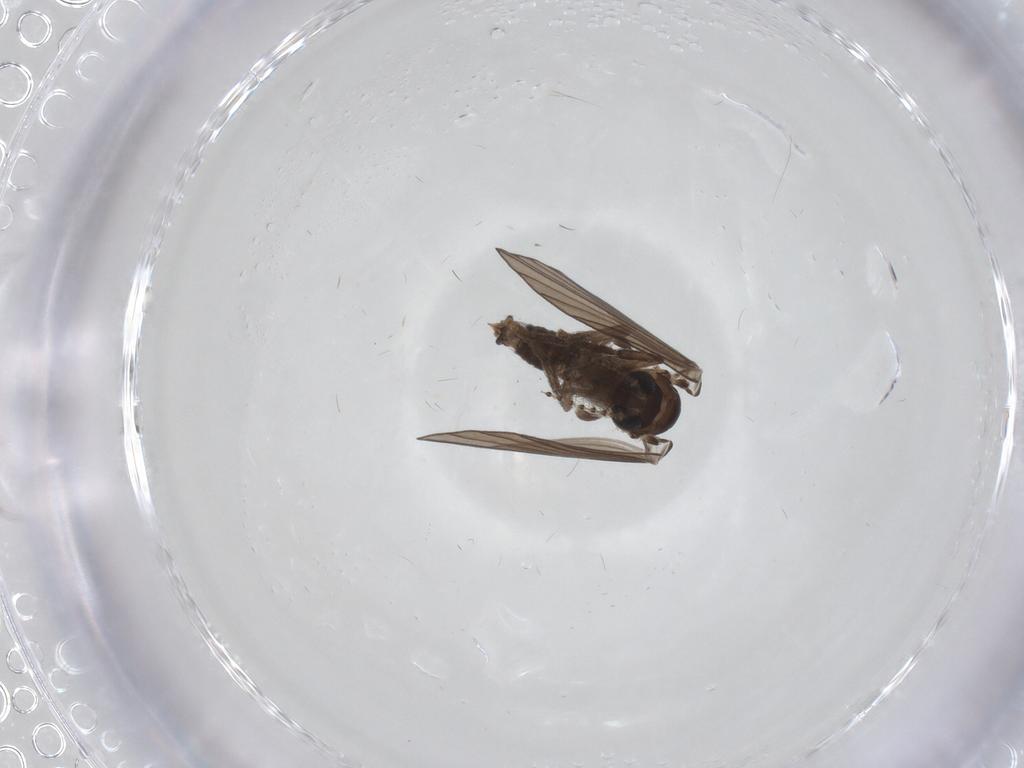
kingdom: Animalia
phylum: Arthropoda
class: Insecta
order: Diptera
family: Psychodidae
